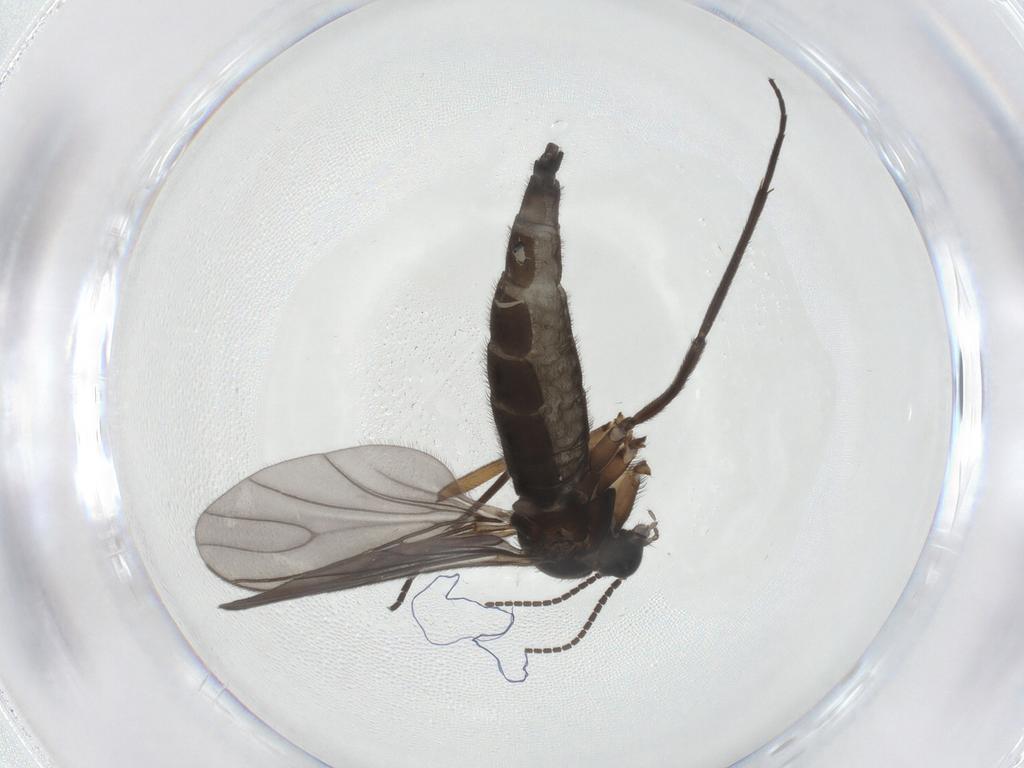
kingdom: Animalia
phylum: Arthropoda
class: Insecta
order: Diptera
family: Sciaridae
